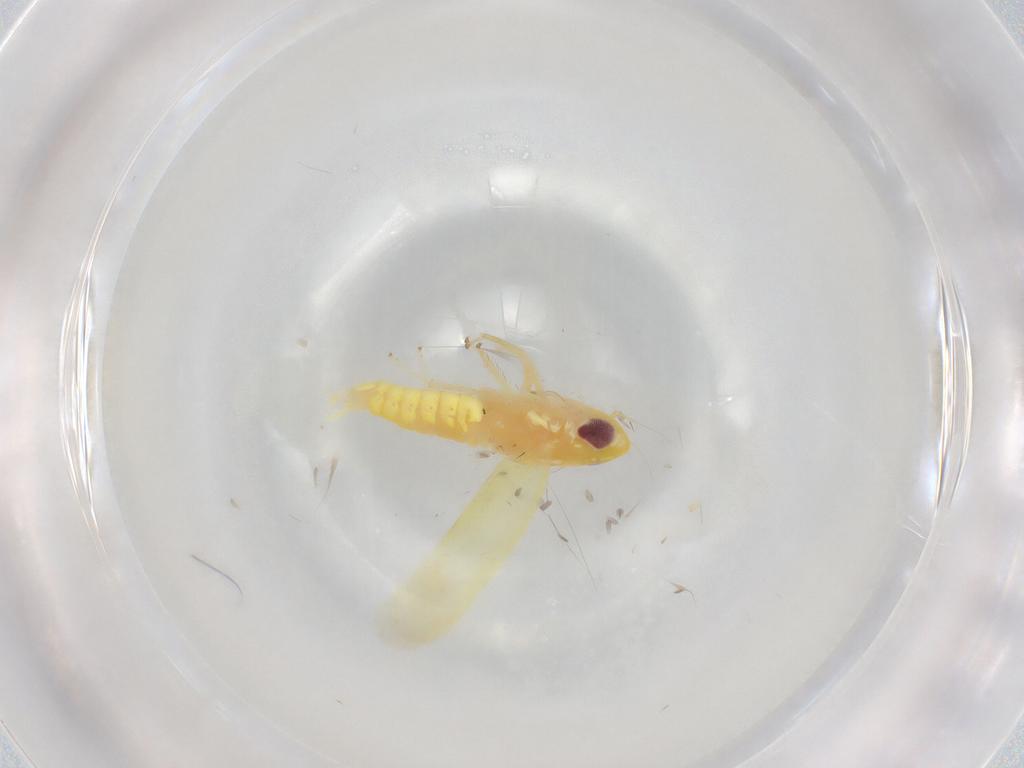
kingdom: Animalia
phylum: Arthropoda
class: Insecta
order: Hemiptera
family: Cicadellidae
